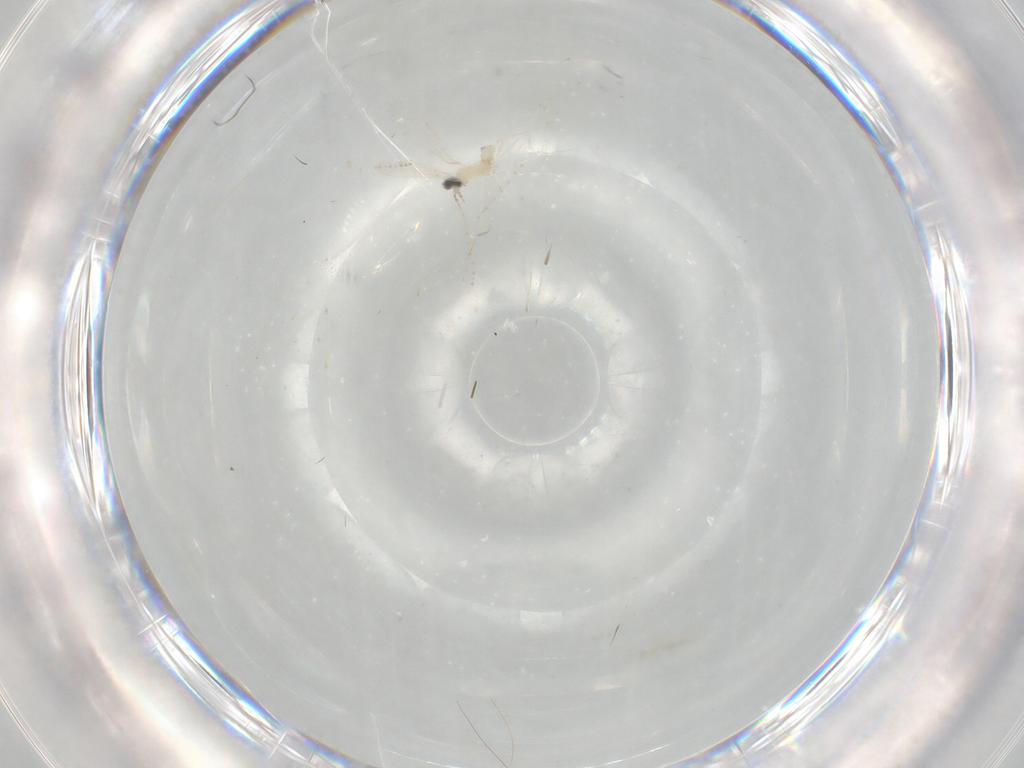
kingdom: Animalia
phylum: Arthropoda
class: Insecta
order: Diptera
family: Cecidomyiidae
